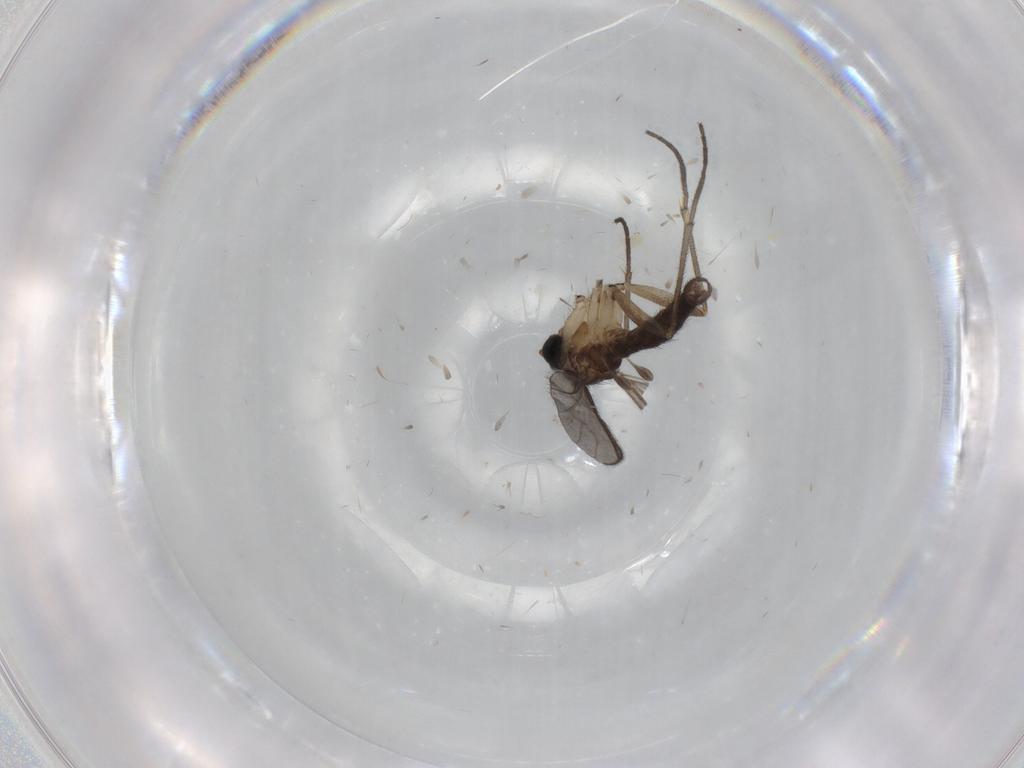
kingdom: Animalia
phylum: Arthropoda
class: Insecta
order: Diptera
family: Sciaridae
